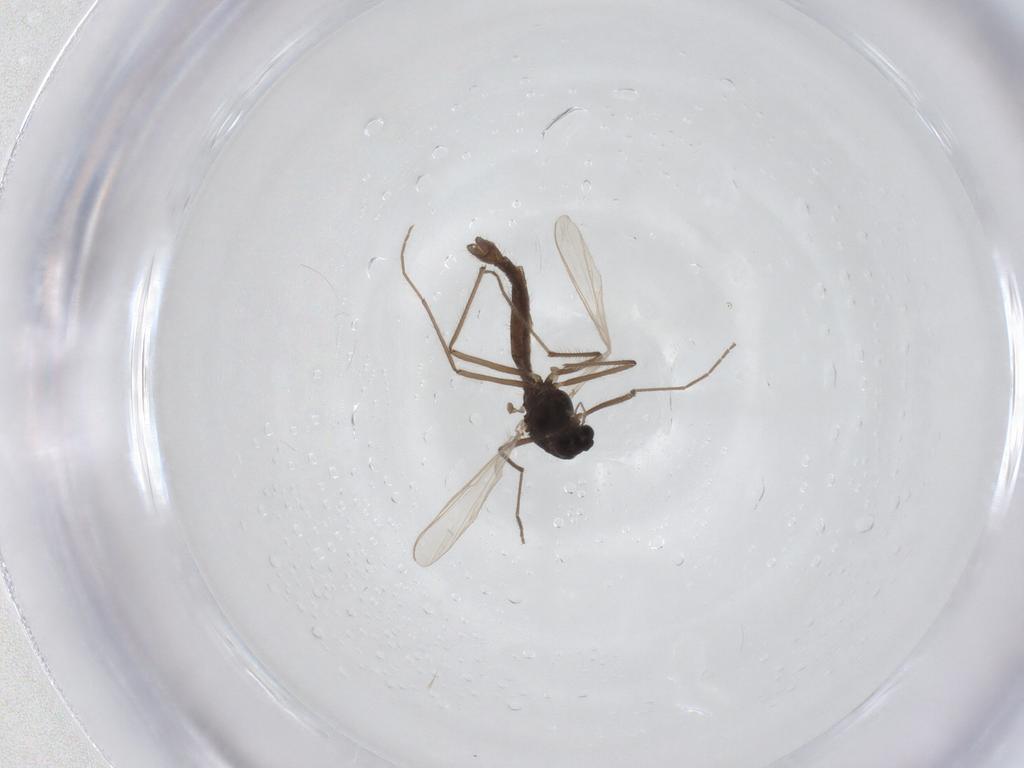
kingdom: Animalia
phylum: Arthropoda
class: Insecta
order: Diptera
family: Chironomidae
